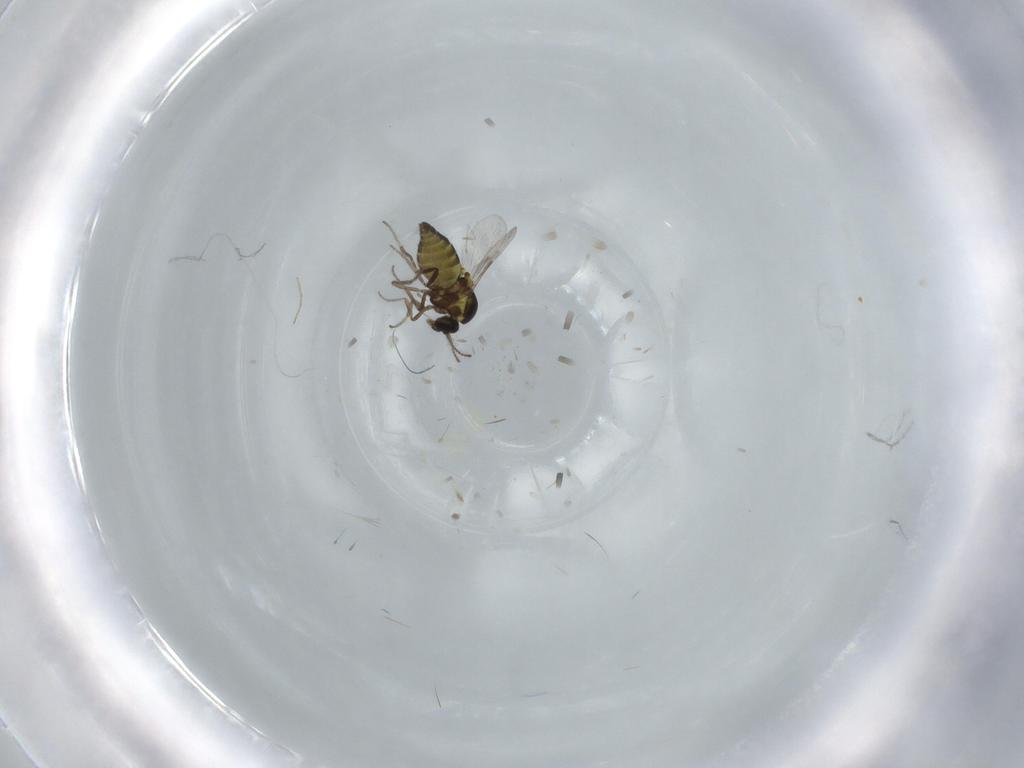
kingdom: Animalia
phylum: Arthropoda
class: Insecta
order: Diptera
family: Chironomidae
